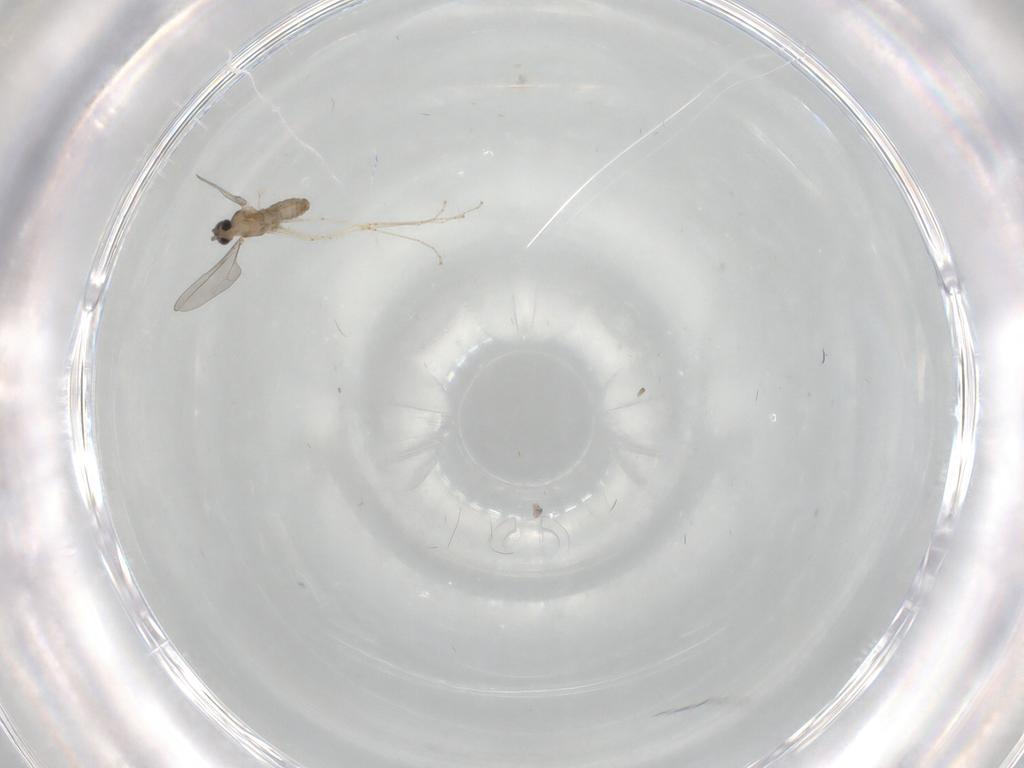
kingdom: Animalia
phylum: Arthropoda
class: Insecta
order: Diptera
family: Cecidomyiidae
